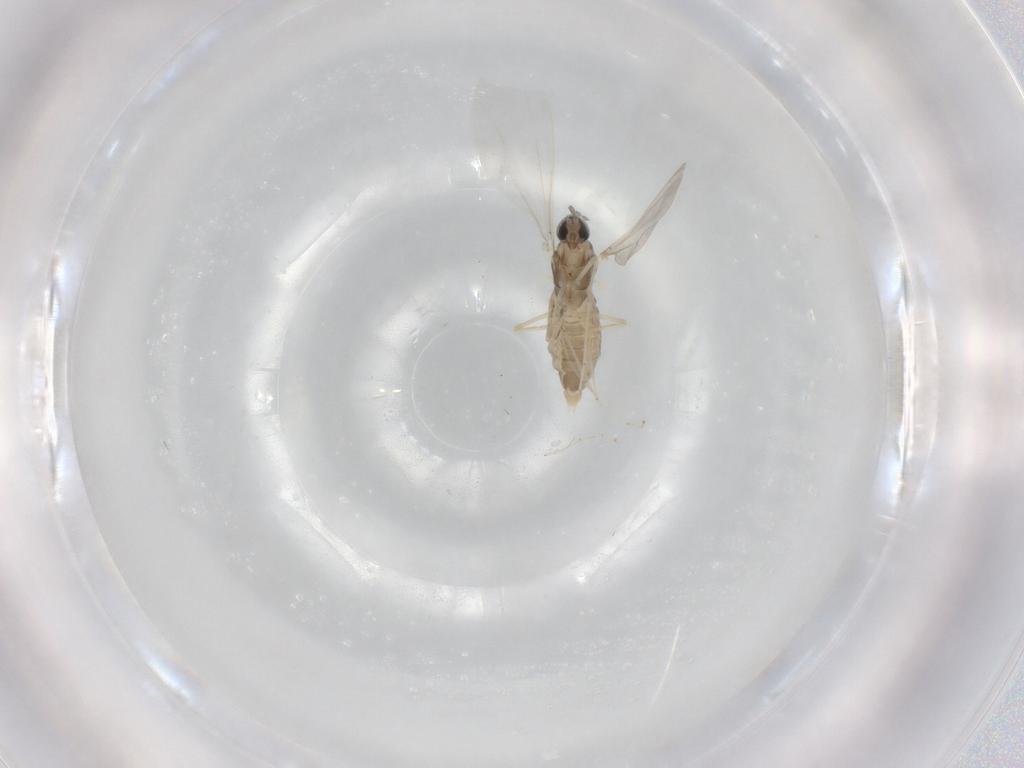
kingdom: Animalia
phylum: Arthropoda
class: Insecta
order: Diptera
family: Cecidomyiidae
